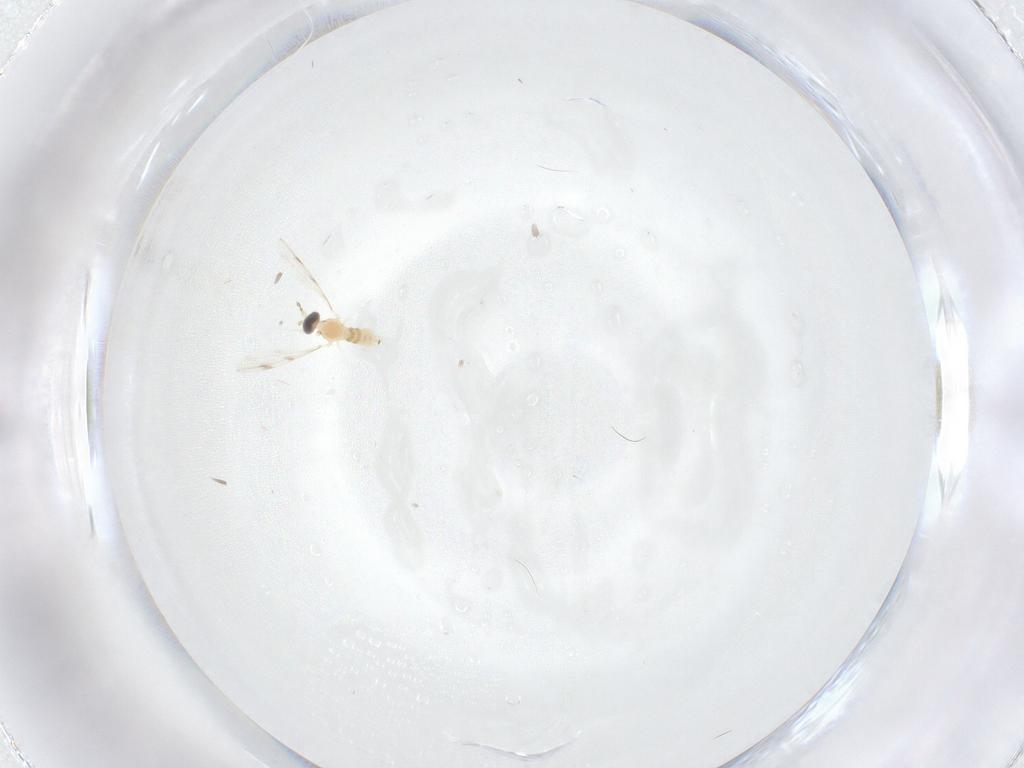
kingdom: Animalia
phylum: Arthropoda
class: Insecta
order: Diptera
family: Cecidomyiidae
